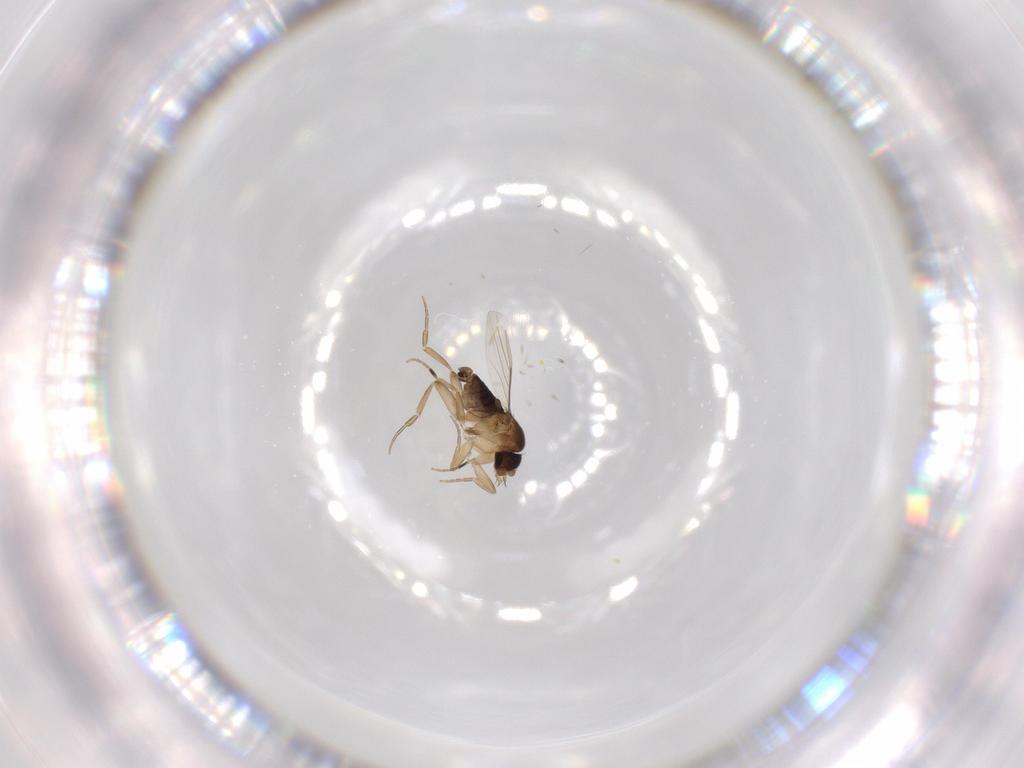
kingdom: Animalia
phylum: Arthropoda
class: Insecta
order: Diptera
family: Phoridae
